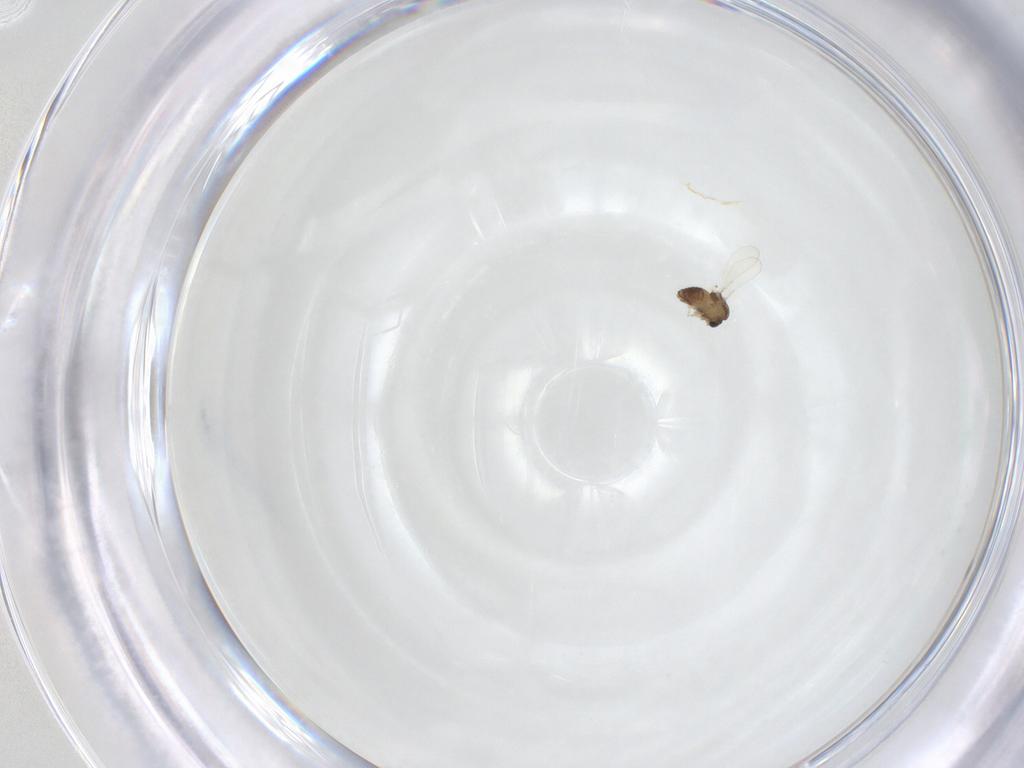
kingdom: Animalia
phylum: Arthropoda
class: Insecta
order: Diptera
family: Chironomidae
